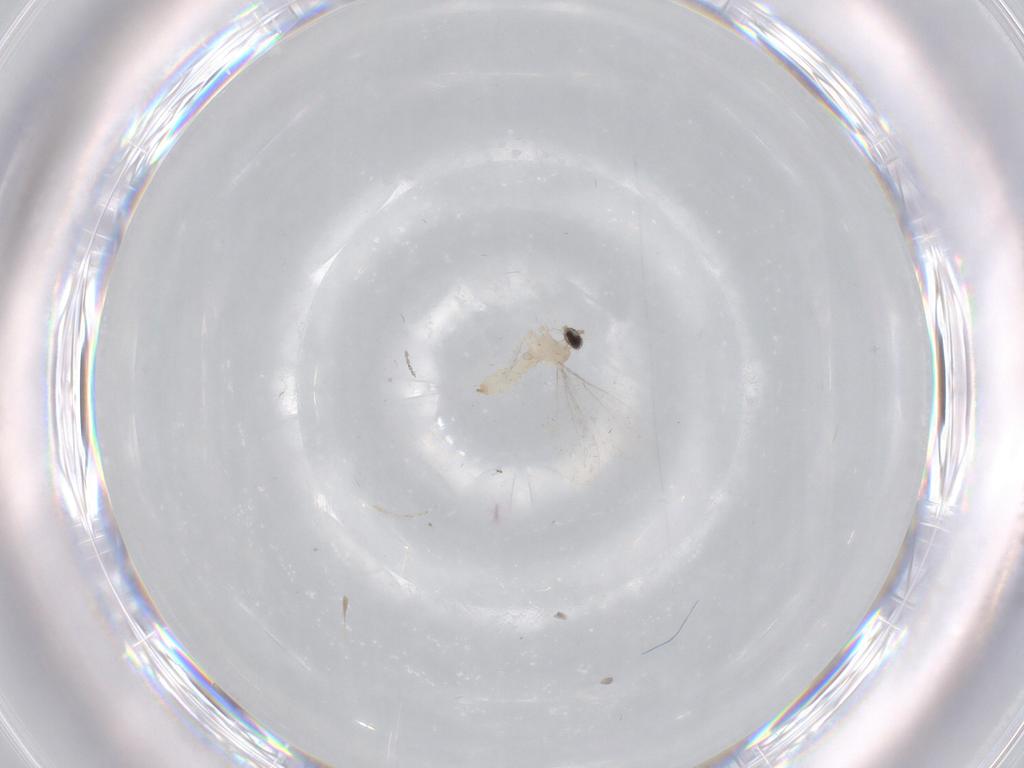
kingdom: Animalia
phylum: Arthropoda
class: Insecta
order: Diptera
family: Cecidomyiidae
